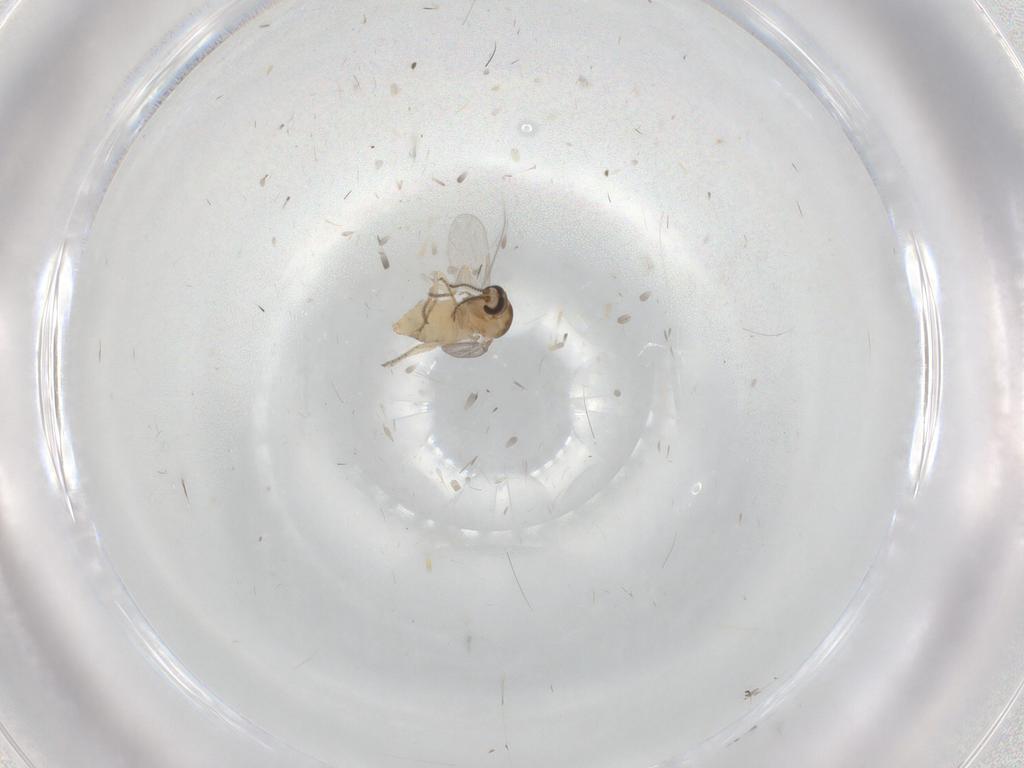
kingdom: Animalia
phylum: Arthropoda
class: Insecta
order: Diptera
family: Ceratopogonidae
